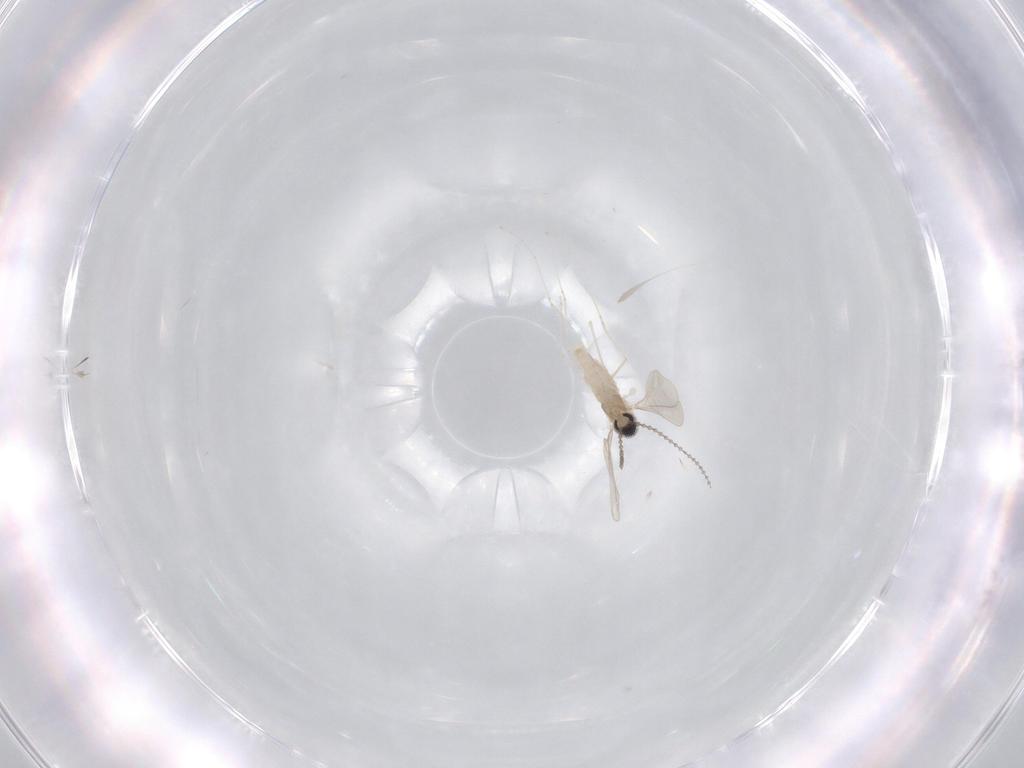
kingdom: Animalia
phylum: Arthropoda
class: Insecta
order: Diptera
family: Cecidomyiidae
